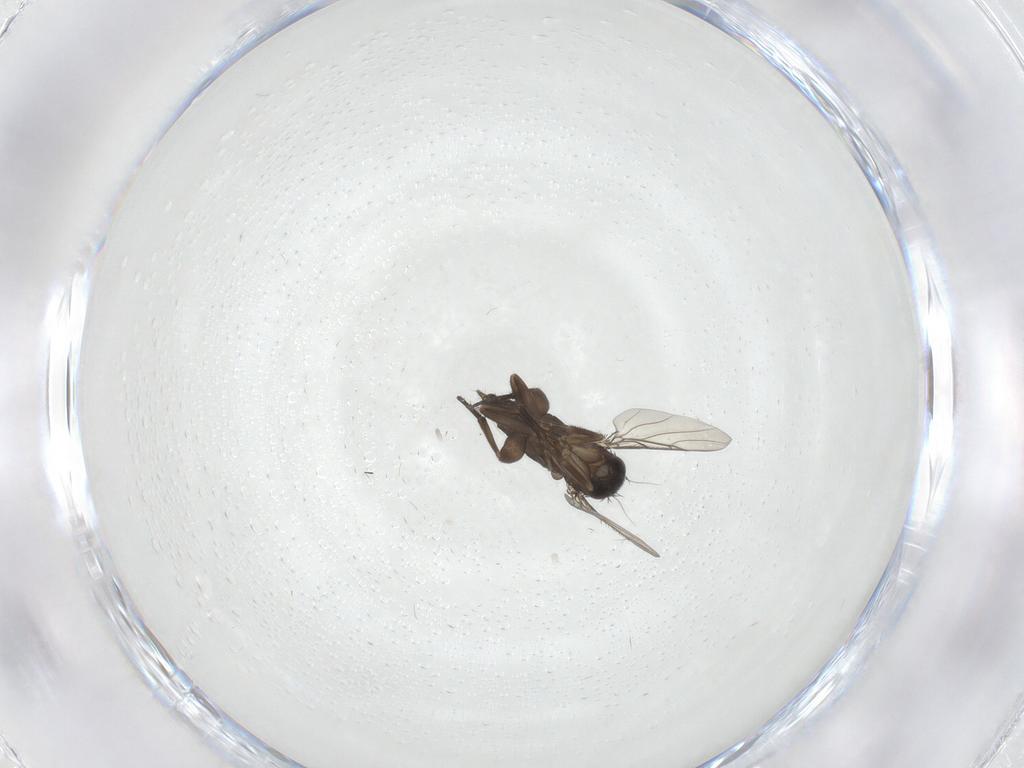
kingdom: Animalia
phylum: Arthropoda
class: Insecta
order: Diptera
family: Phoridae
